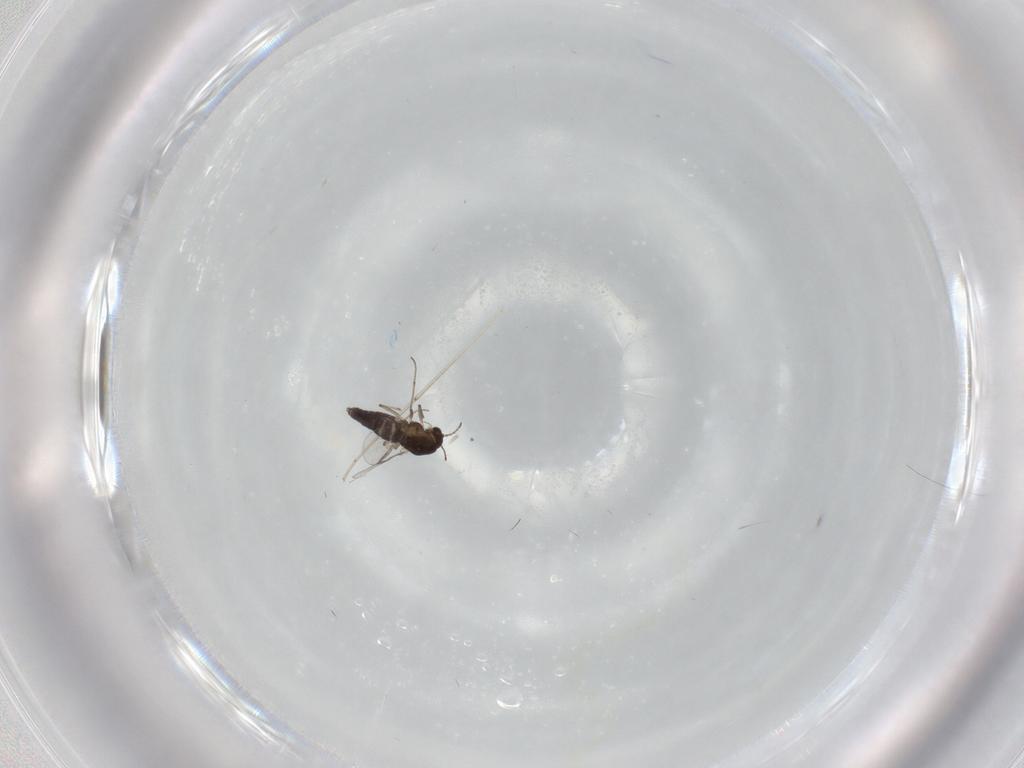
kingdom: Animalia
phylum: Arthropoda
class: Insecta
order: Diptera
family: Chironomidae
